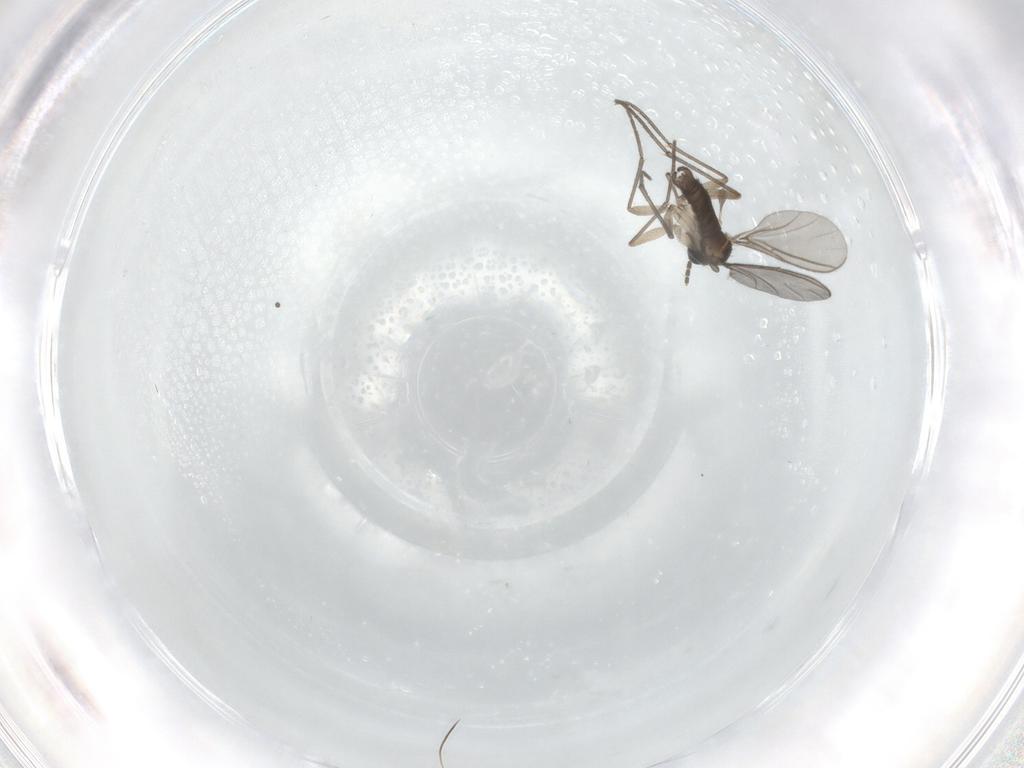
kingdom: Animalia
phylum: Arthropoda
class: Insecta
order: Diptera
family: Sciaridae
